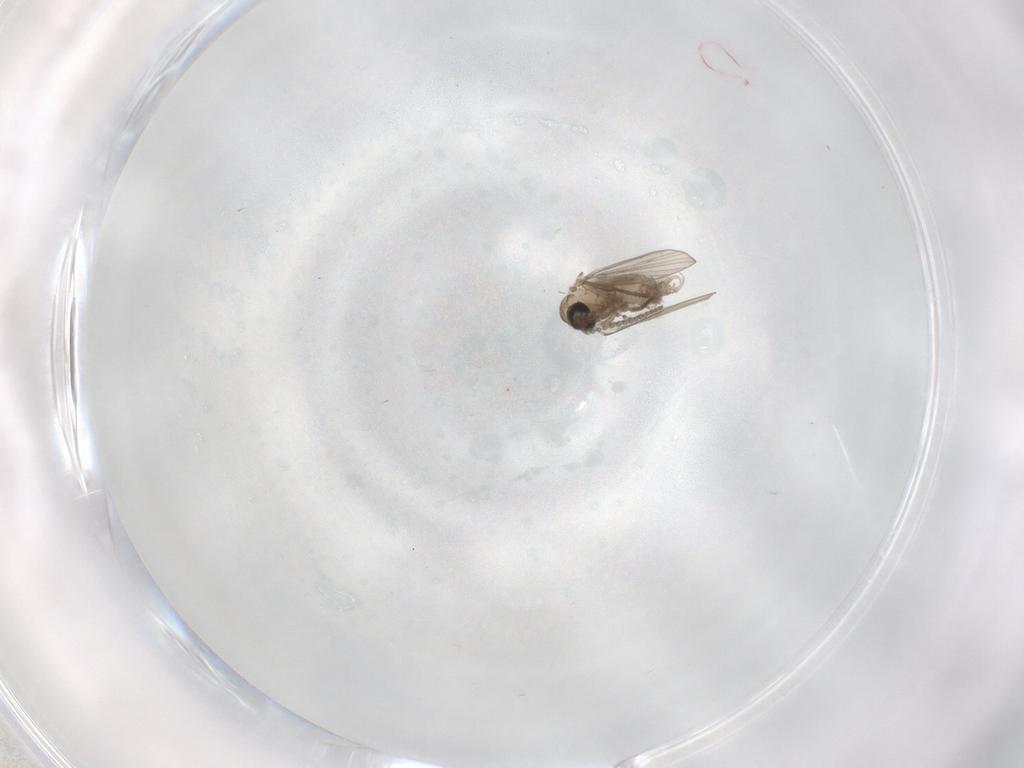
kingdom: Animalia
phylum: Arthropoda
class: Insecta
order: Diptera
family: Psychodidae
